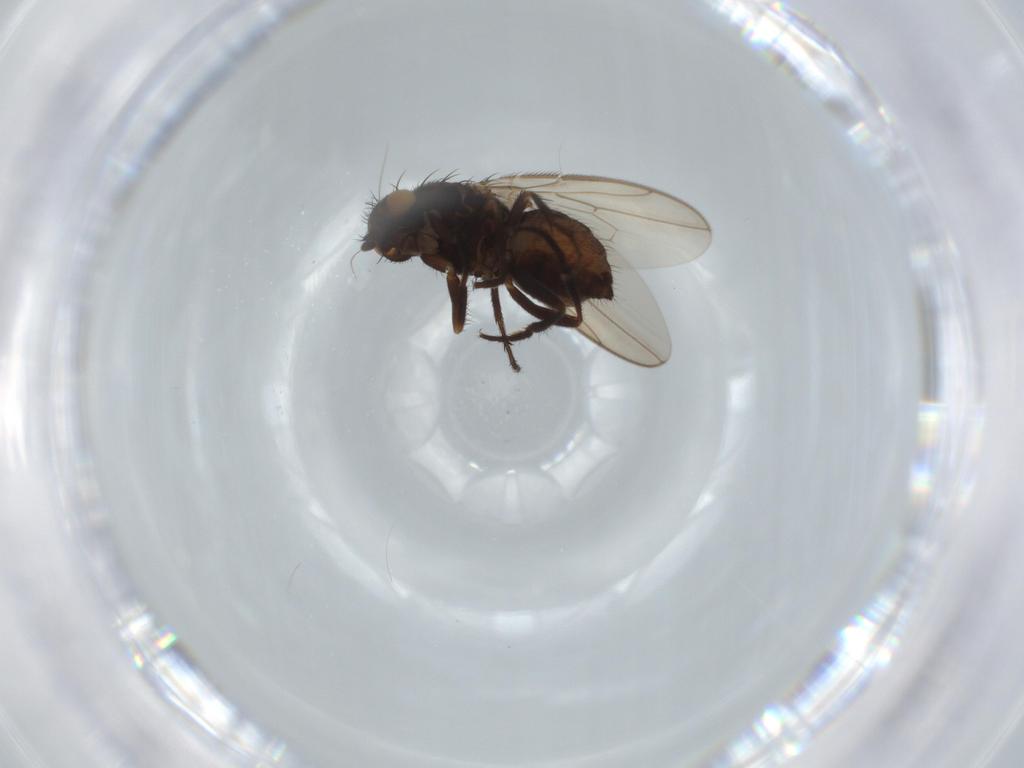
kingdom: Animalia
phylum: Arthropoda
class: Insecta
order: Diptera
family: Sphaeroceridae
